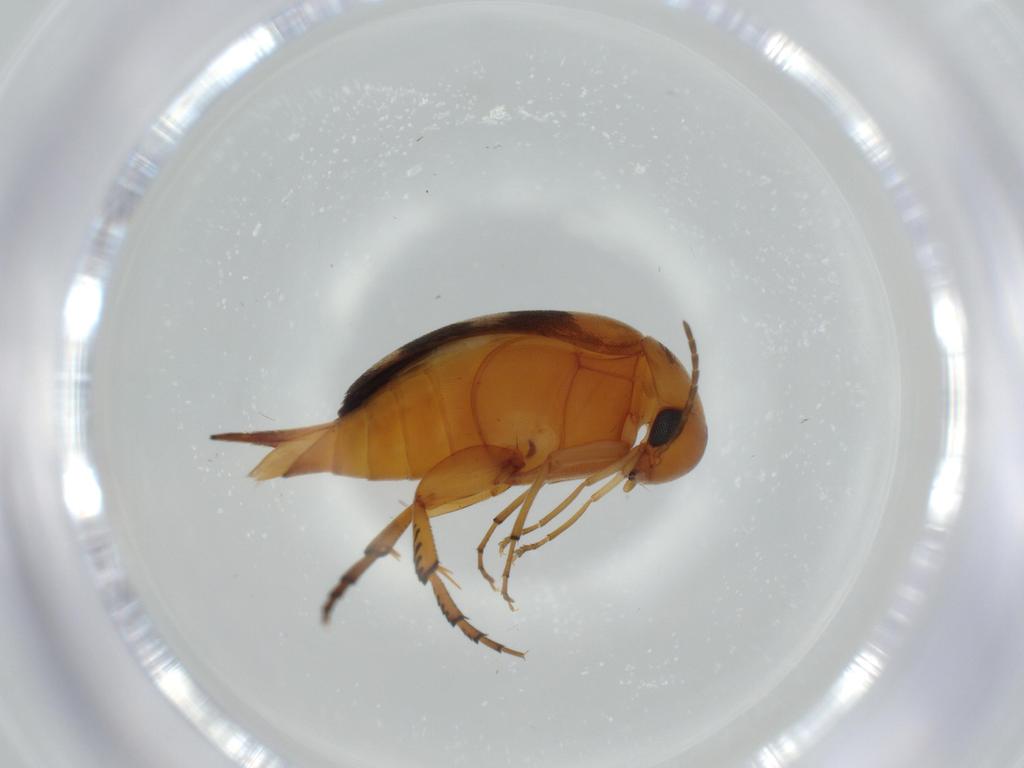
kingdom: Animalia
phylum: Arthropoda
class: Insecta
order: Coleoptera
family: Mordellidae
